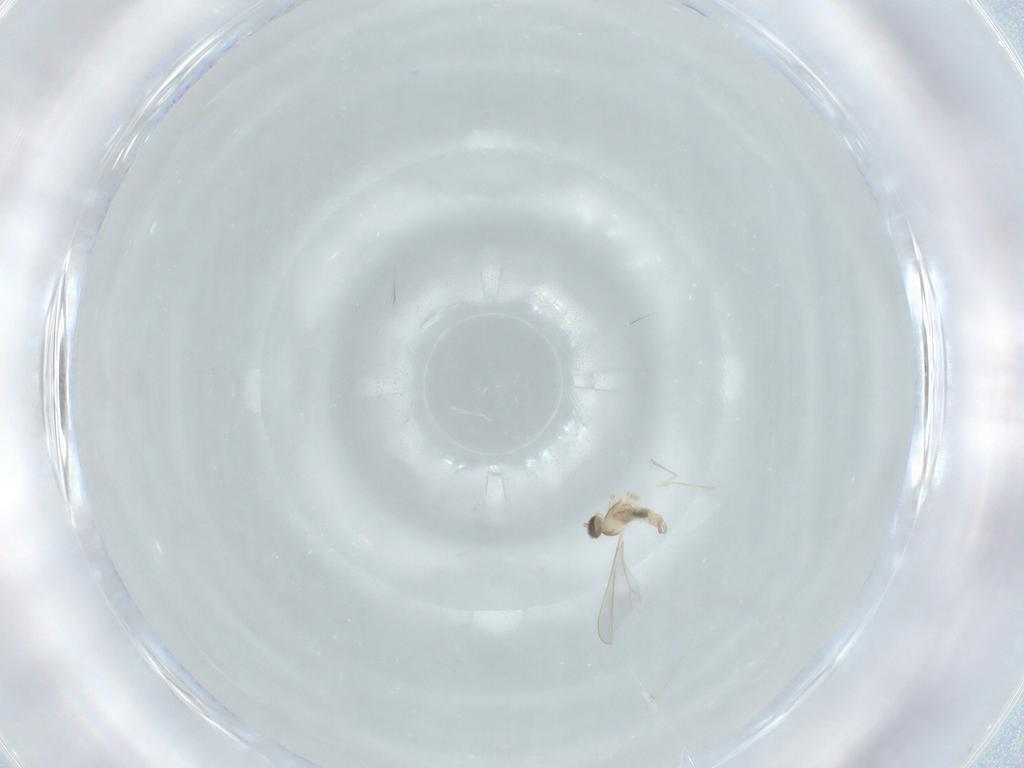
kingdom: Animalia
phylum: Arthropoda
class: Insecta
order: Diptera
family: Cecidomyiidae
